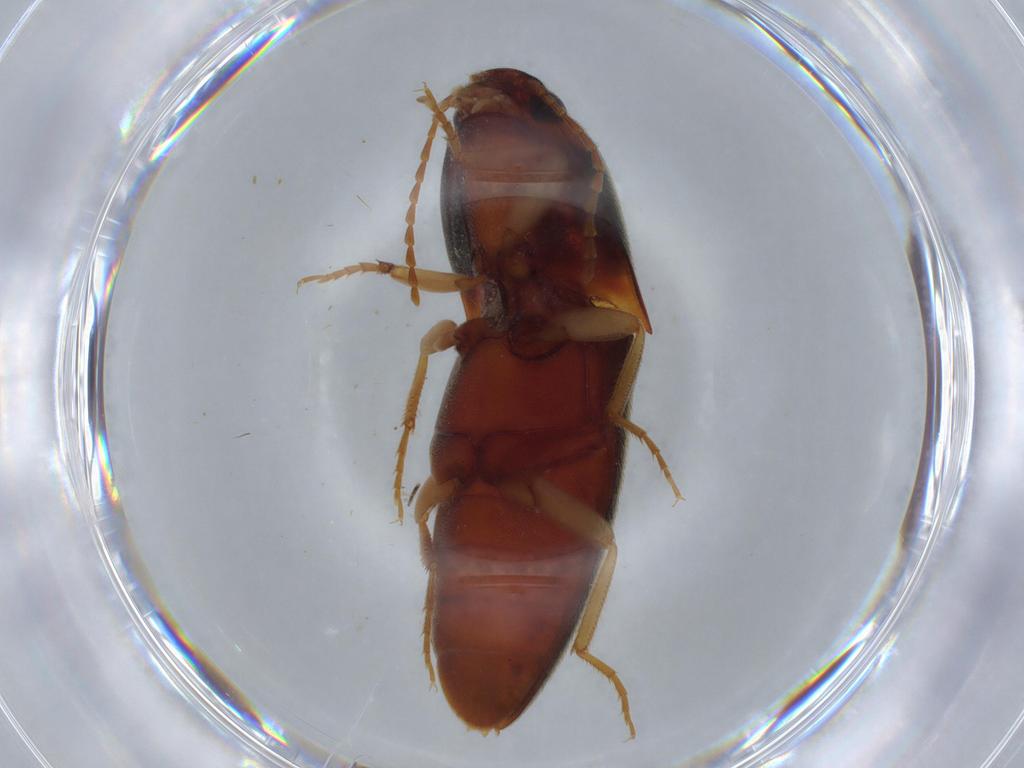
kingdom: Animalia
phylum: Arthropoda
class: Insecta
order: Coleoptera
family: Elateridae
